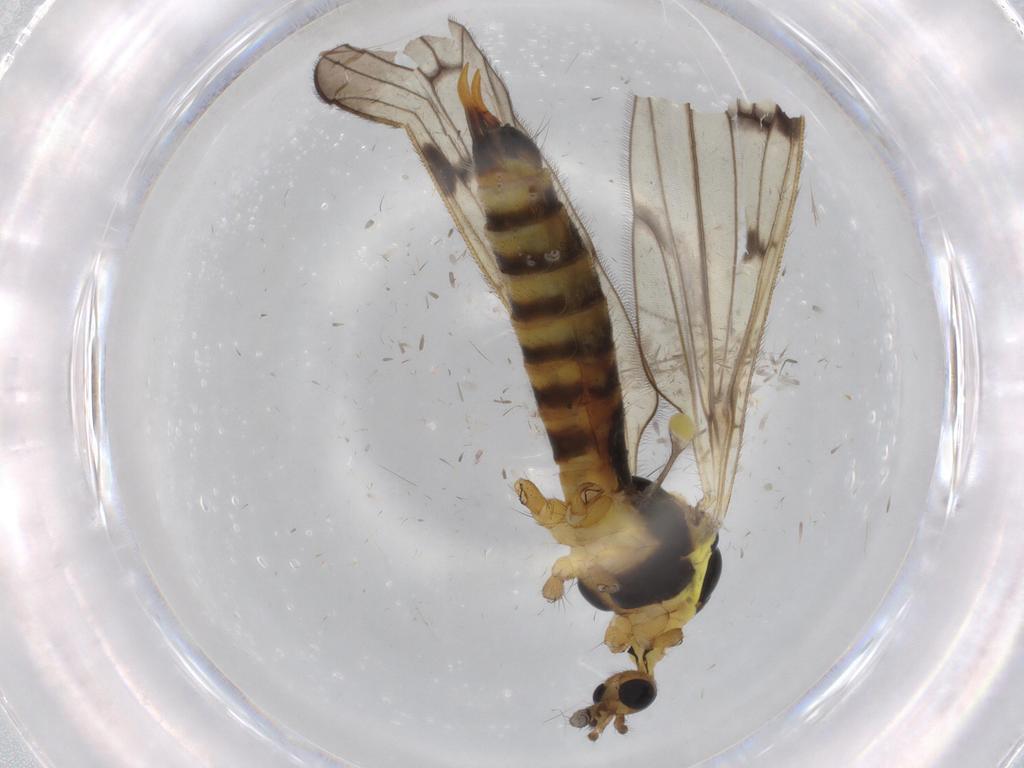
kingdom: Animalia
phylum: Arthropoda
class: Insecta
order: Diptera
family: Limoniidae
